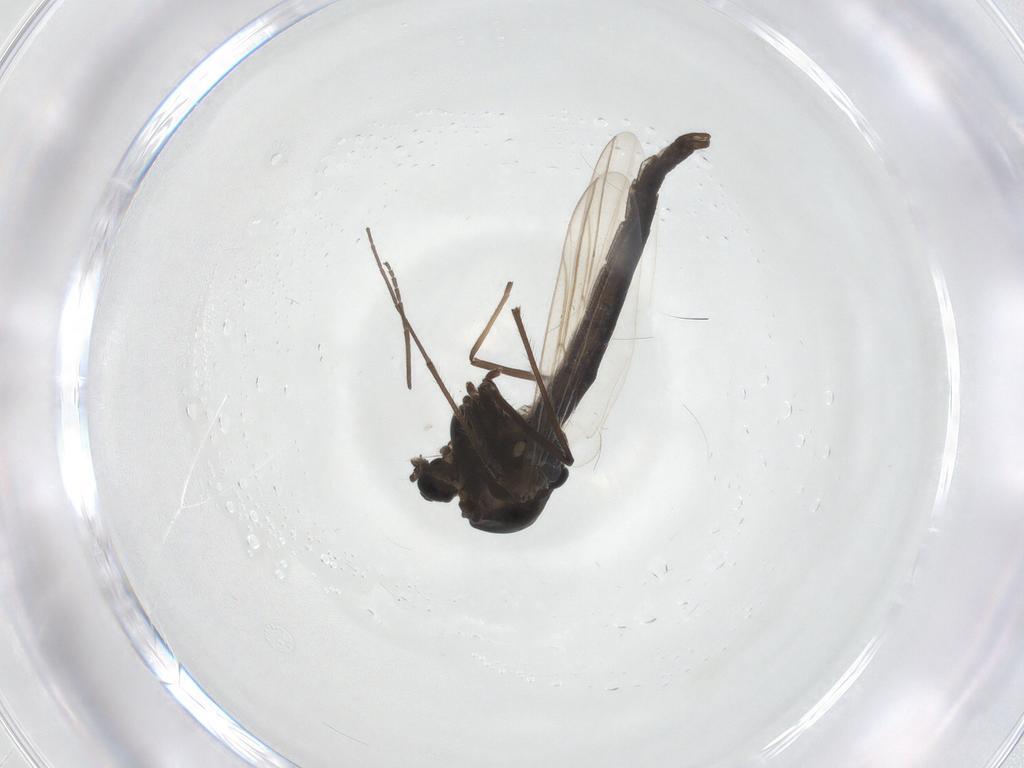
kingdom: Animalia
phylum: Arthropoda
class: Insecta
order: Diptera
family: Chironomidae
